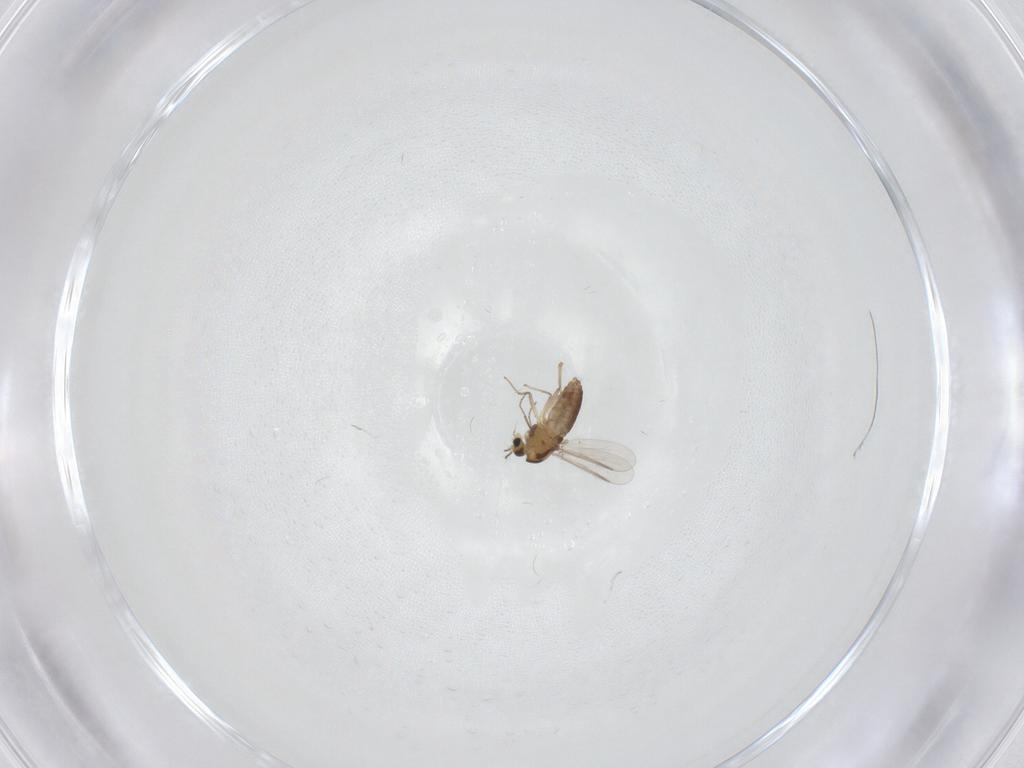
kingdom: Animalia
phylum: Arthropoda
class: Insecta
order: Diptera
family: Chironomidae
